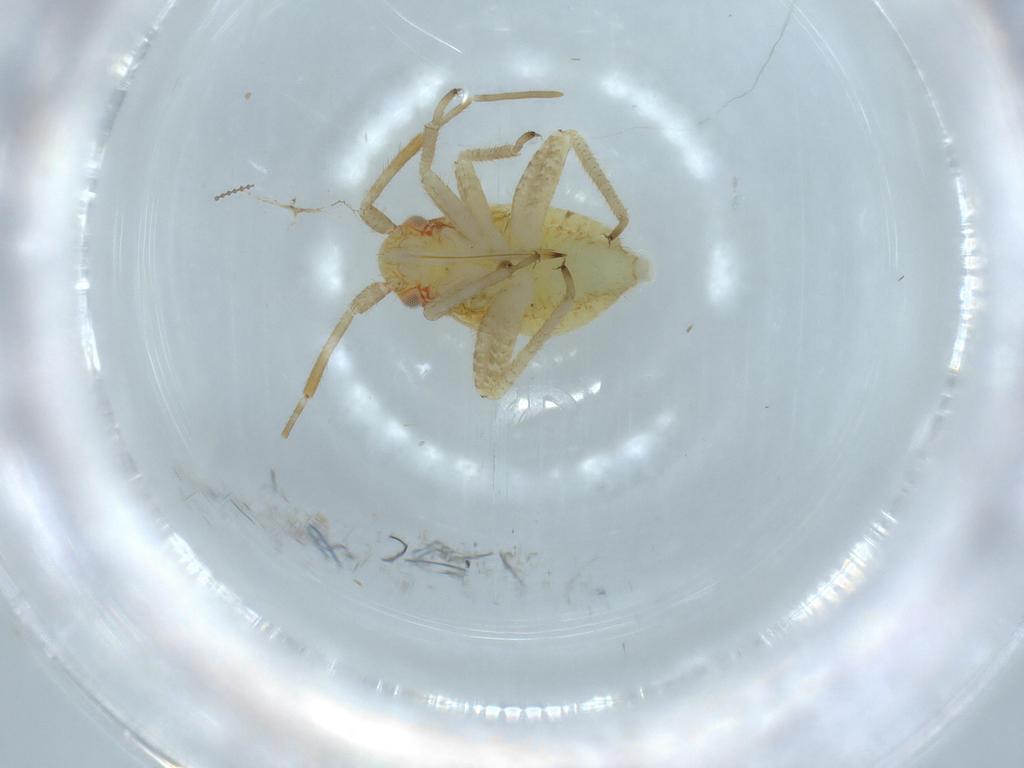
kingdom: Animalia
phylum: Arthropoda
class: Insecta
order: Hemiptera
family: Miridae
